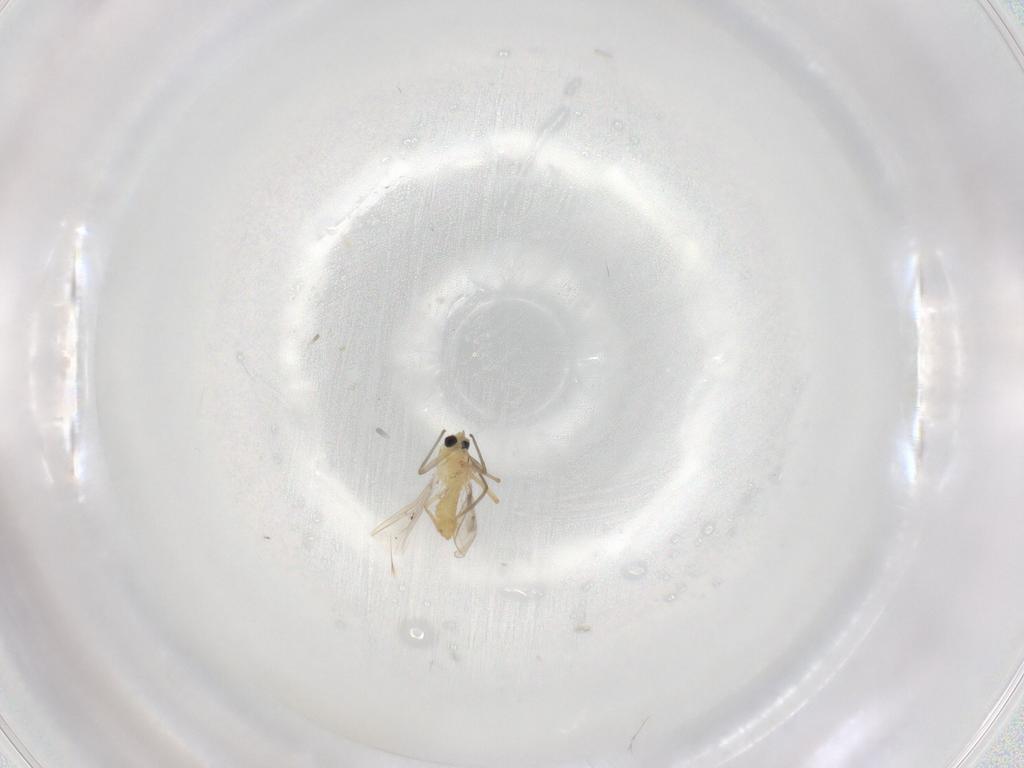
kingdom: Animalia
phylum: Arthropoda
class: Insecta
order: Diptera
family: Chironomidae
